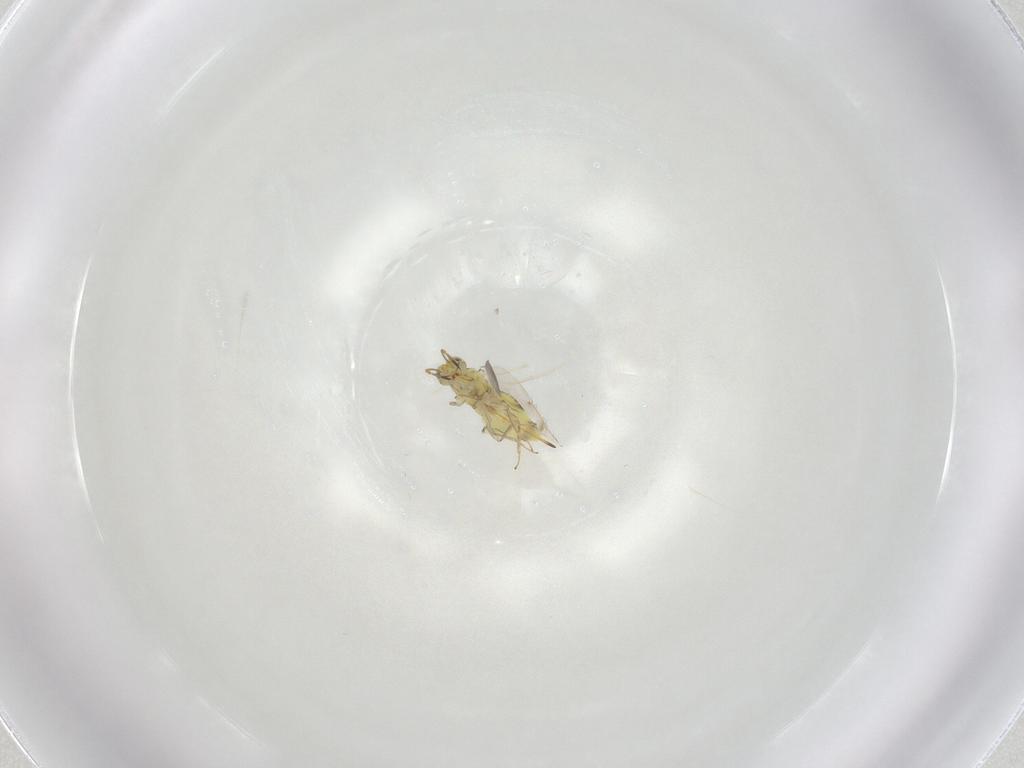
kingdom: Animalia
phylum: Arthropoda
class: Insecta
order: Hymenoptera
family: Aphelinidae
